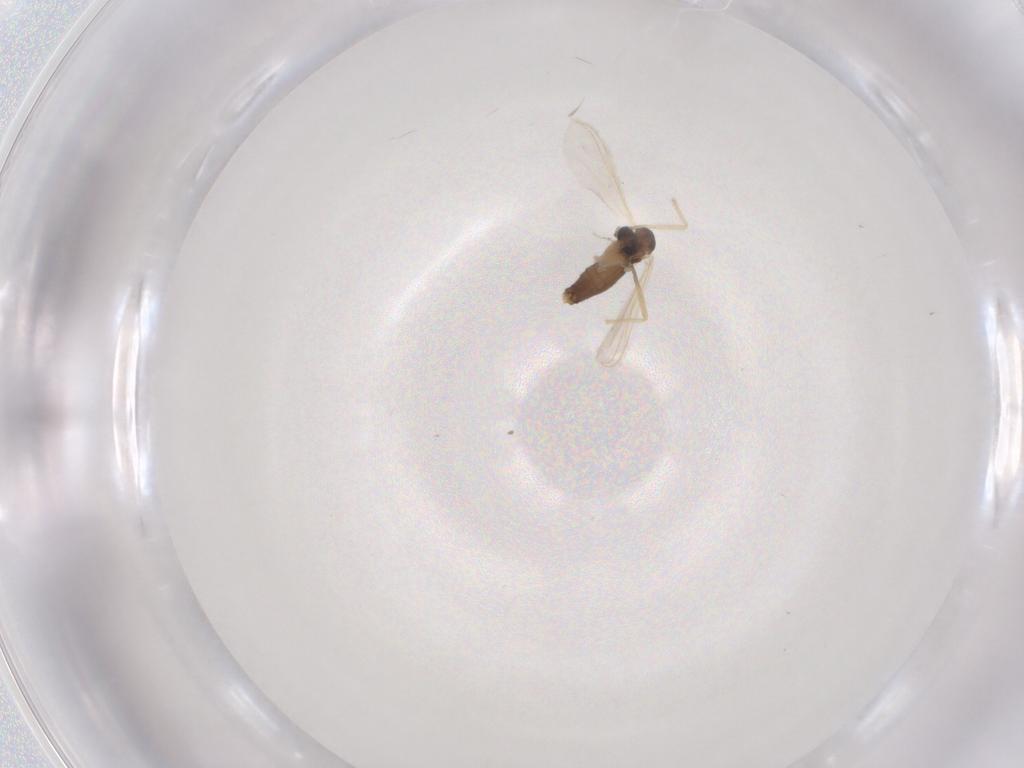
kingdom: Animalia
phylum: Arthropoda
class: Insecta
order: Diptera
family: Chironomidae
